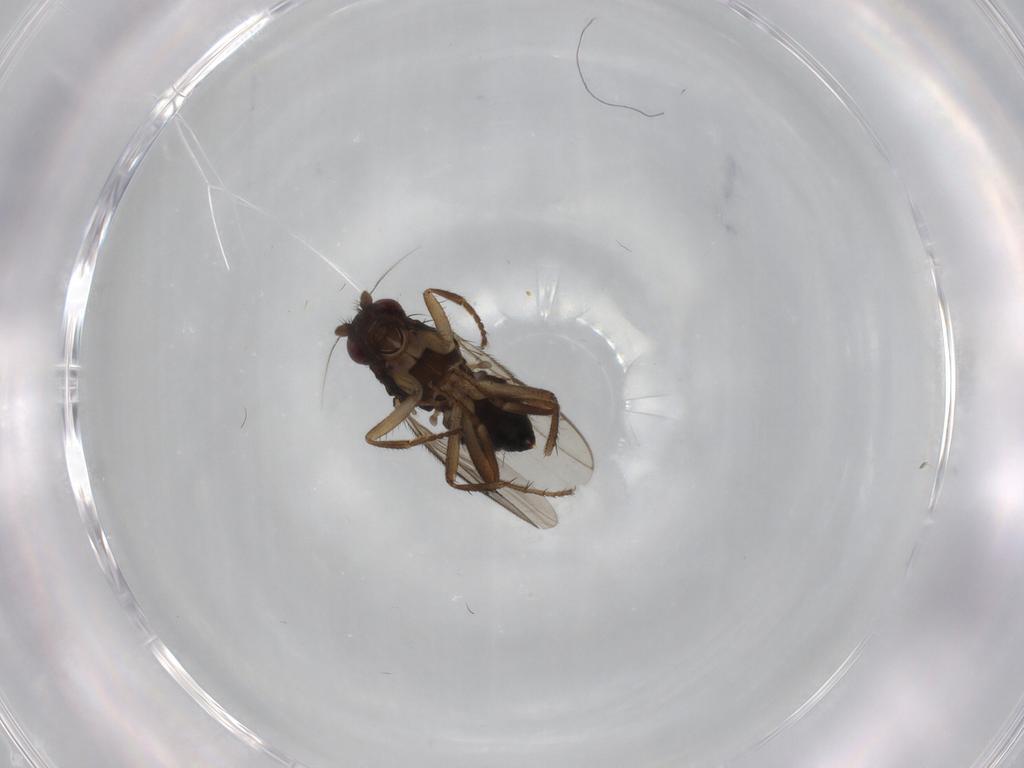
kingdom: Animalia
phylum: Arthropoda
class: Insecta
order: Diptera
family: Sphaeroceridae
